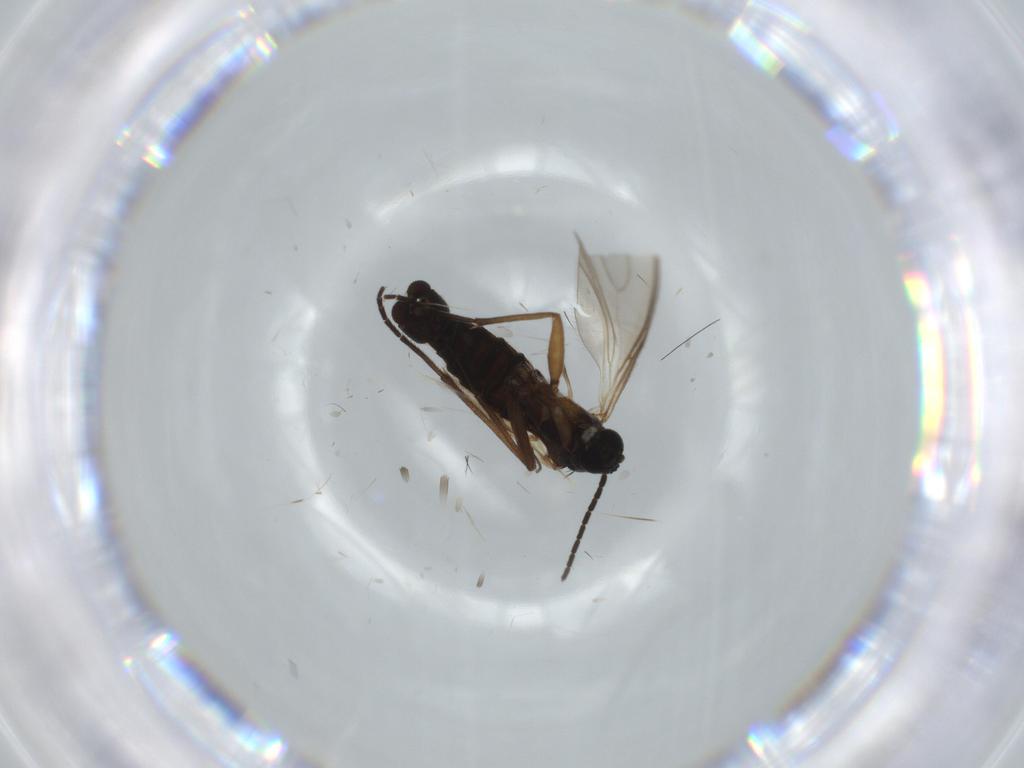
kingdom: Animalia
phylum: Arthropoda
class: Insecta
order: Diptera
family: Sciaridae
